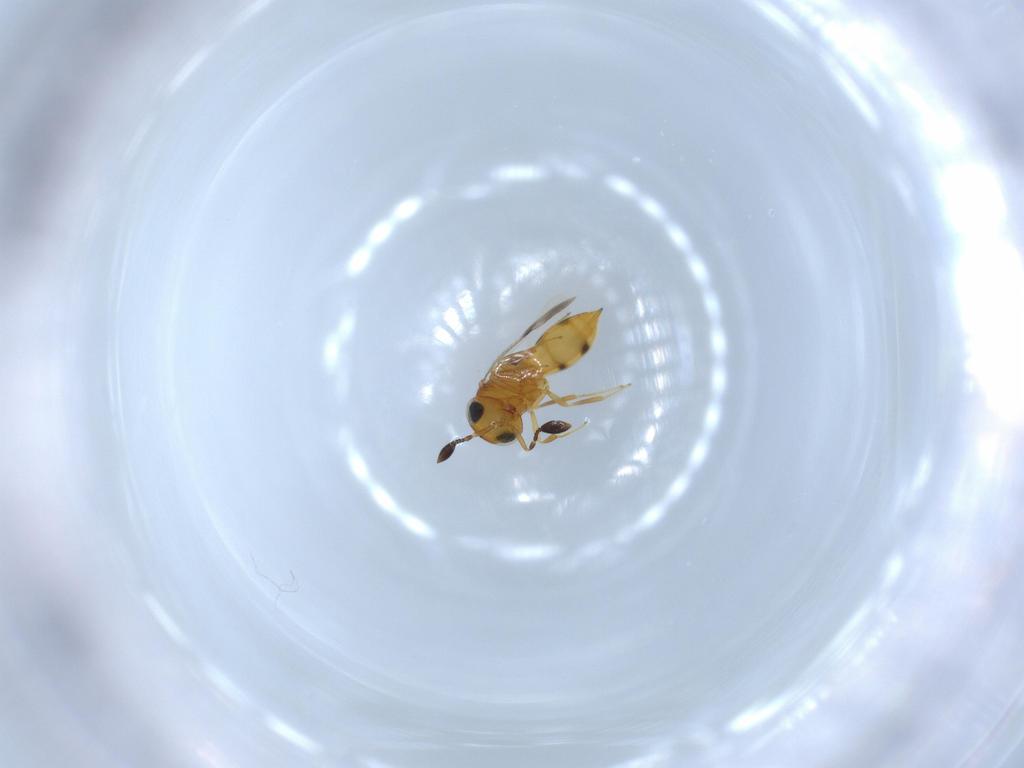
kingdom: Animalia
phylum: Arthropoda
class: Insecta
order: Hymenoptera
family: Scelionidae
